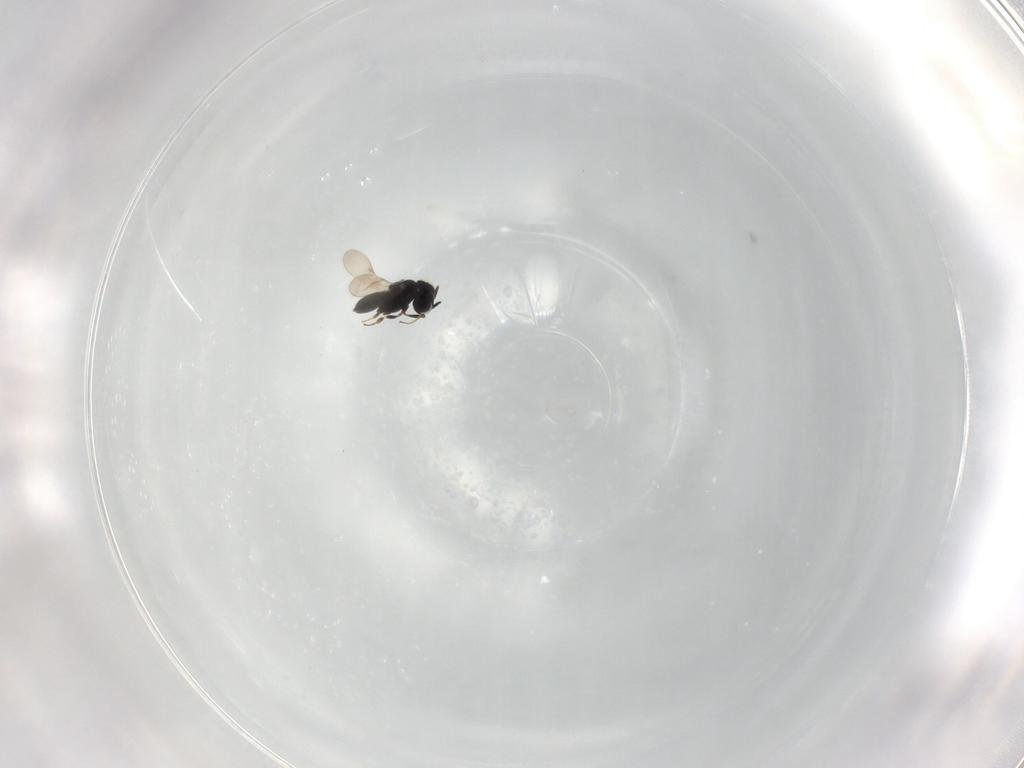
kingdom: Animalia
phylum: Arthropoda
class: Insecta
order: Hymenoptera
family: Scelionidae
